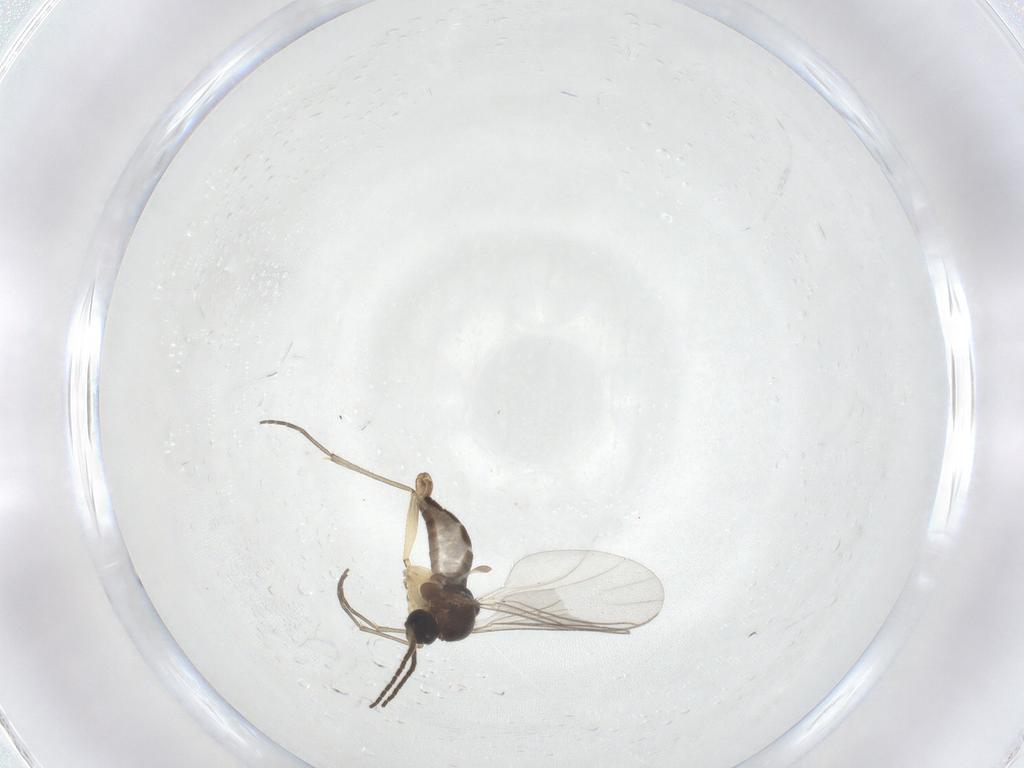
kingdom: Animalia
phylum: Arthropoda
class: Insecta
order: Diptera
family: Sciaridae
